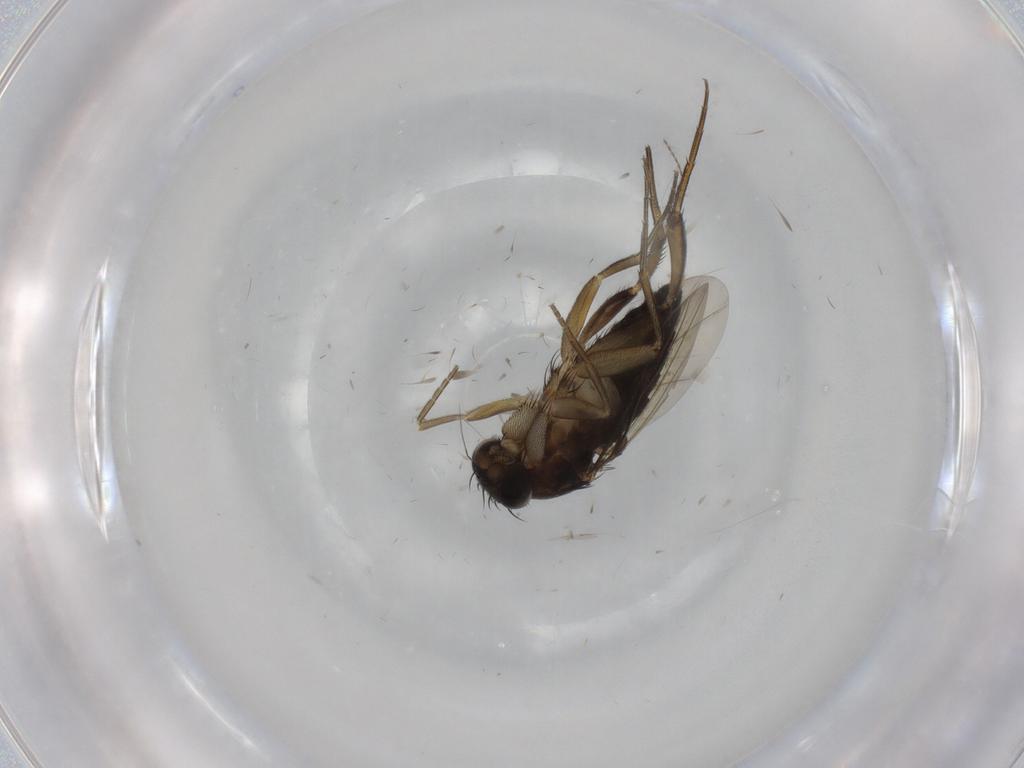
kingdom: Animalia
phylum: Arthropoda
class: Insecta
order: Diptera
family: Phoridae
